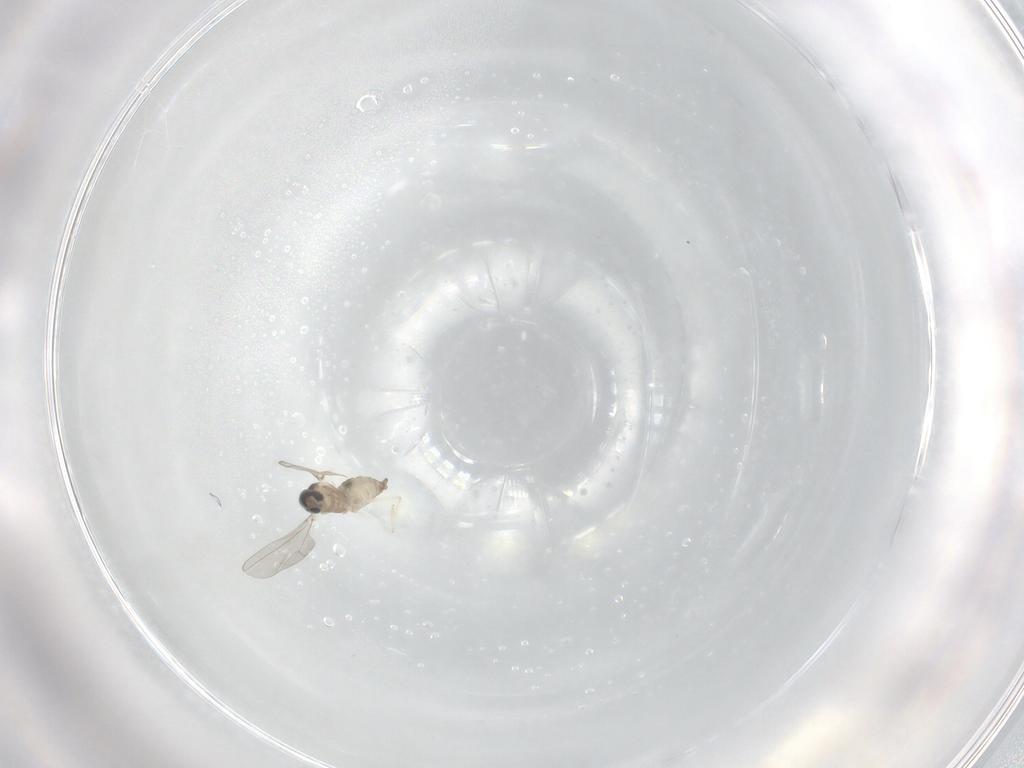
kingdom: Animalia
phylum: Arthropoda
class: Insecta
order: Diptera
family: Cecidomyiidae
